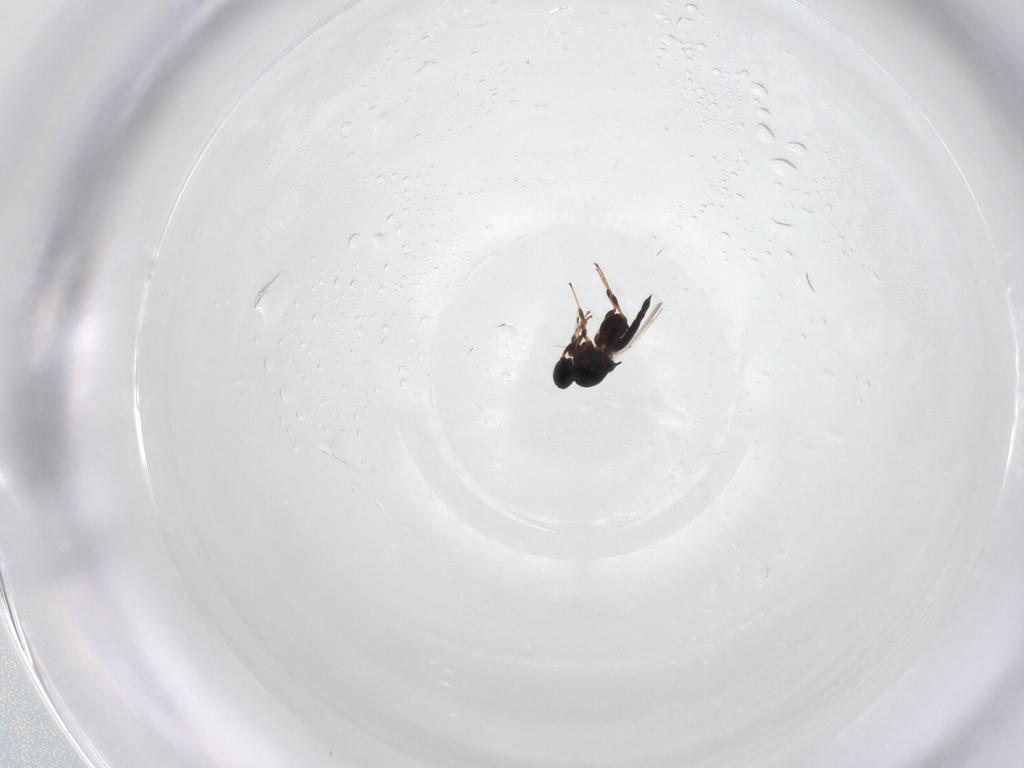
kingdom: Animalia
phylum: Arthropoda
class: Insecta
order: Hymenoptera
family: Platygastridae
